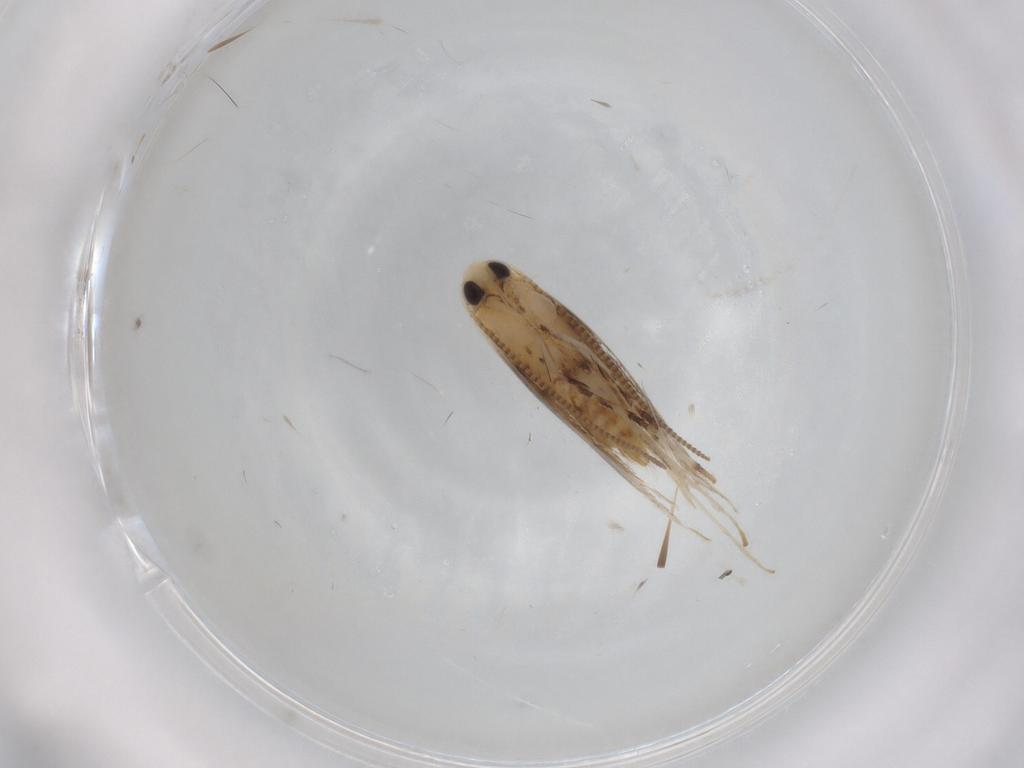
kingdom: Animalia
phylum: Arthropoda
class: Insecta
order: Lepidoptera
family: Gracillariidae
